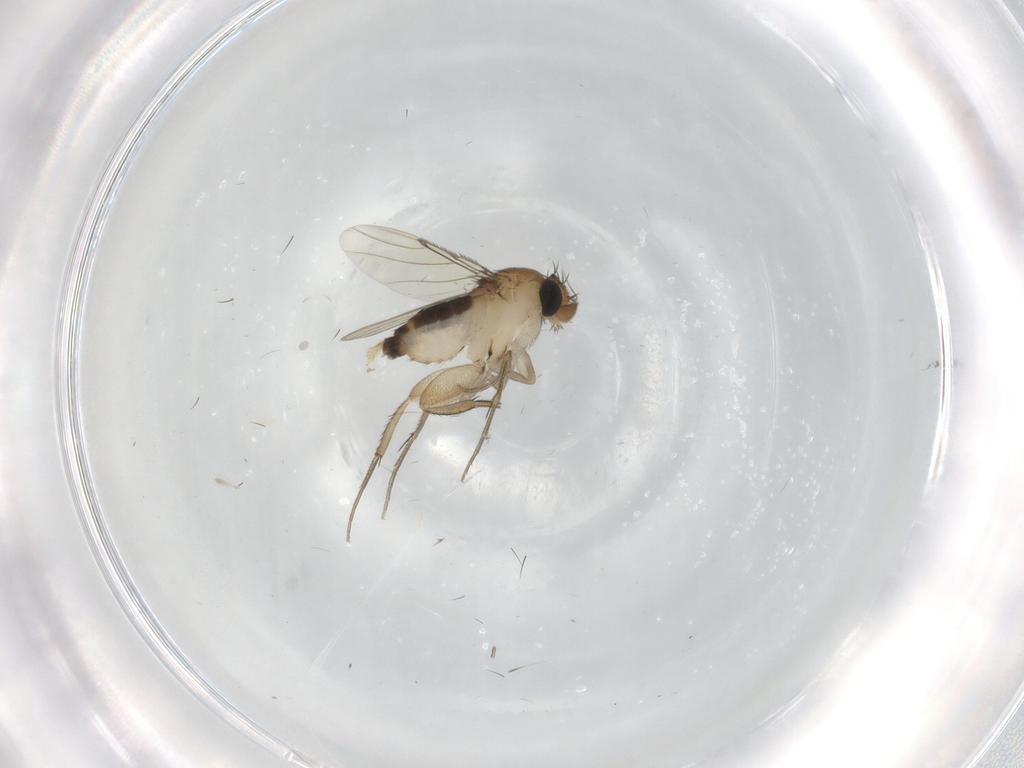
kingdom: Animalia
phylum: Arthropoda
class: Insecta
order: Diptera
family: Phoridae
